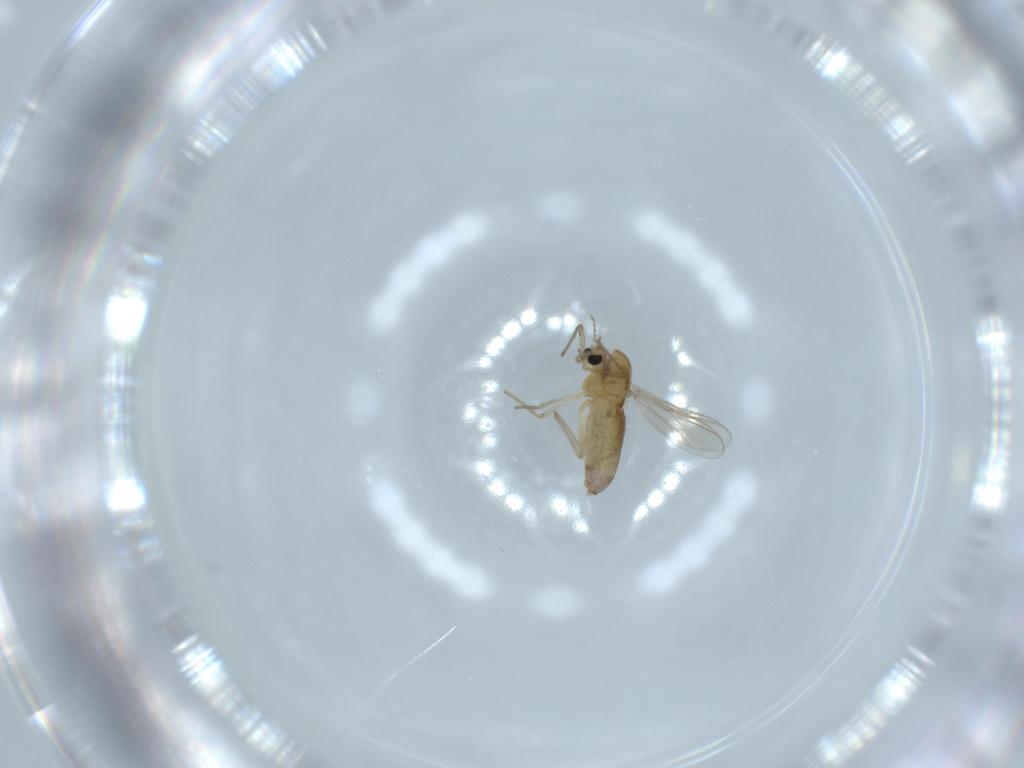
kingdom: Animalia
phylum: Arthropoda
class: Insecta
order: Diptera
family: Chironomidae
